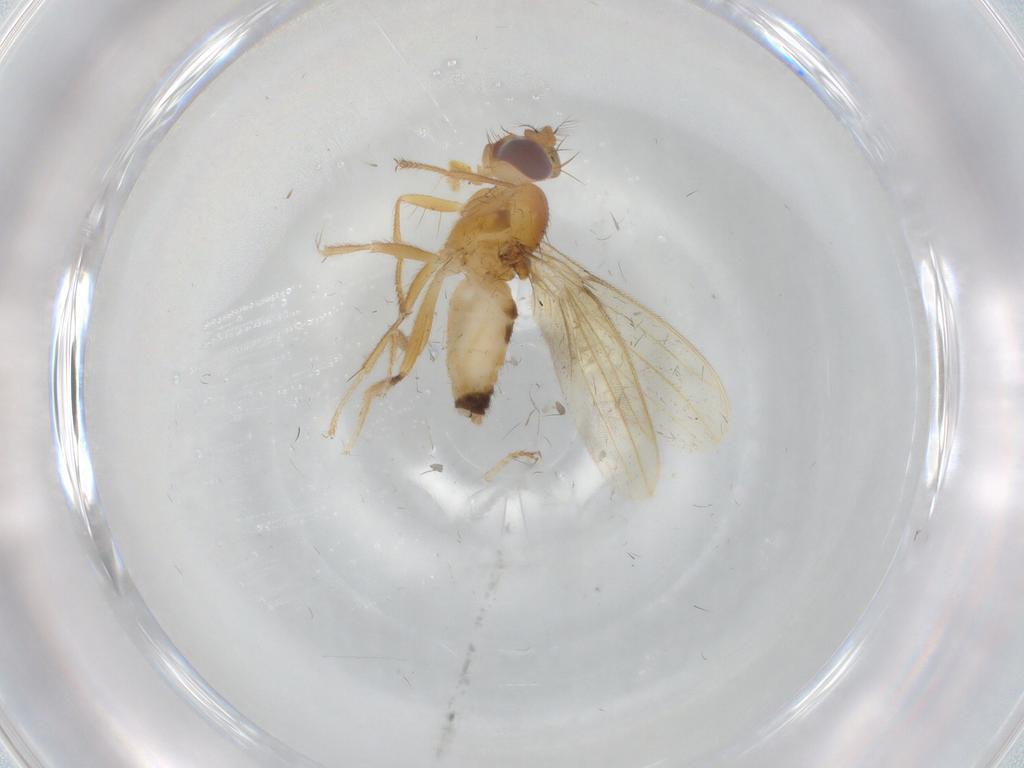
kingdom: Animalia
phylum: Arthropoda
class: Insecta
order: Diptera
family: Periscelididae
